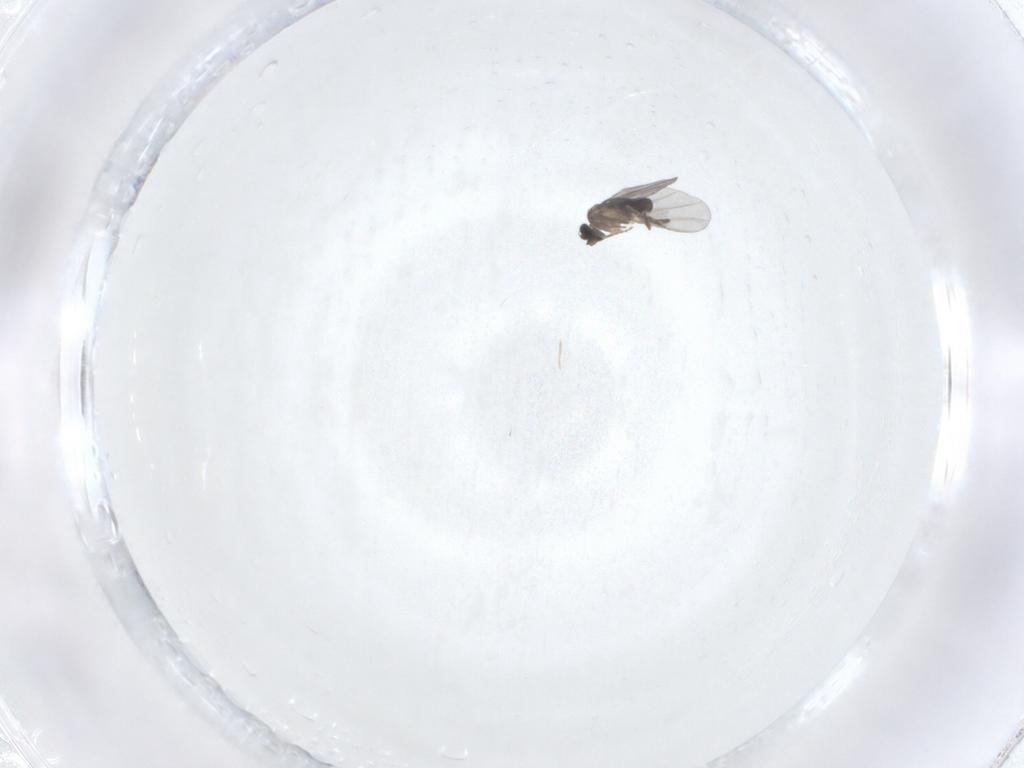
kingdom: Animalia
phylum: Arthropoda
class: Insecta
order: Diptera
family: Phoridae
